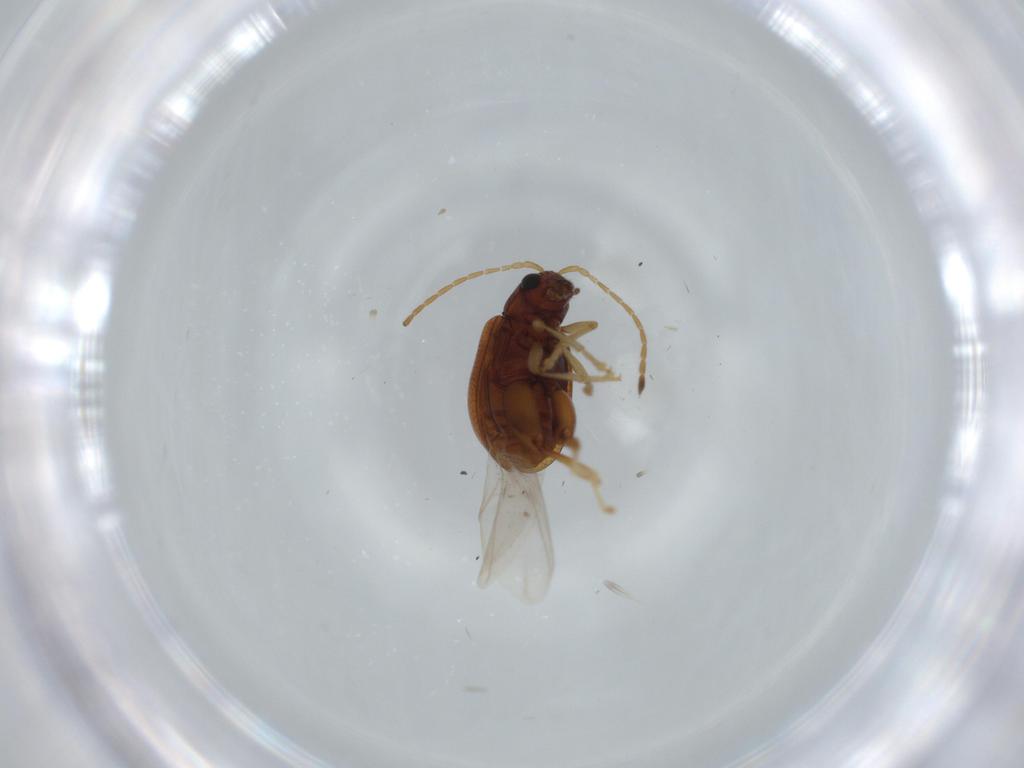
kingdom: Animalia
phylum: Arthropoda
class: Insecta
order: Coleoptera
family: Chrysomelidae
